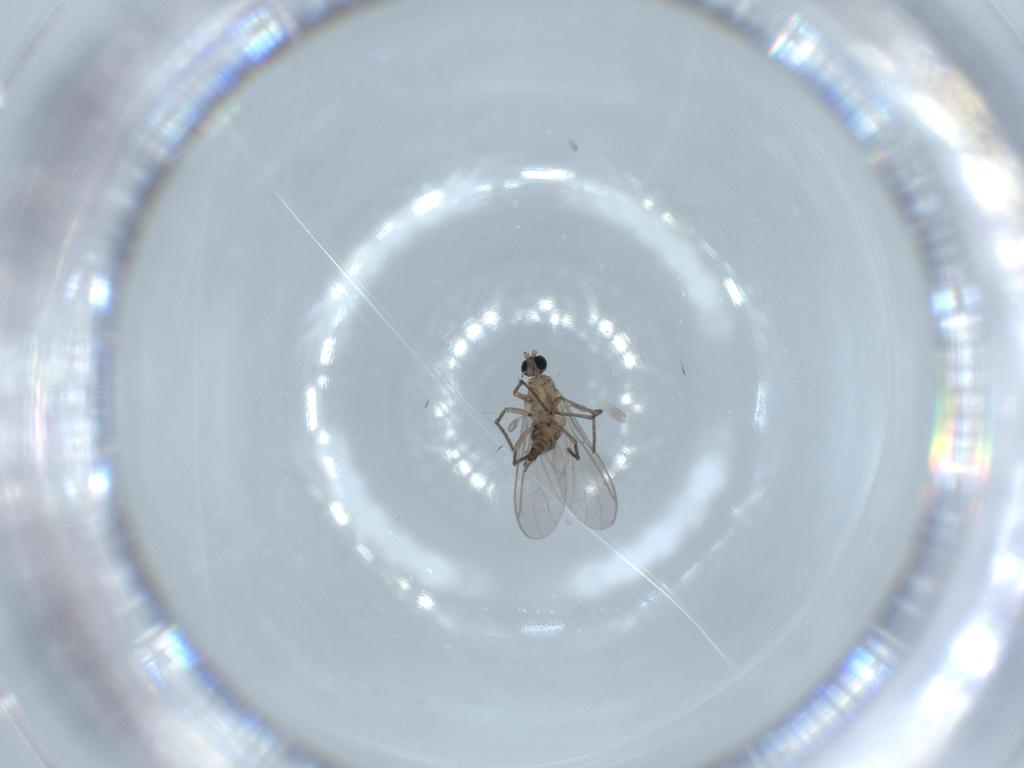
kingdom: Animalia
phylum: Arthropoda
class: Insecta
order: Diptera
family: Sciaridae
